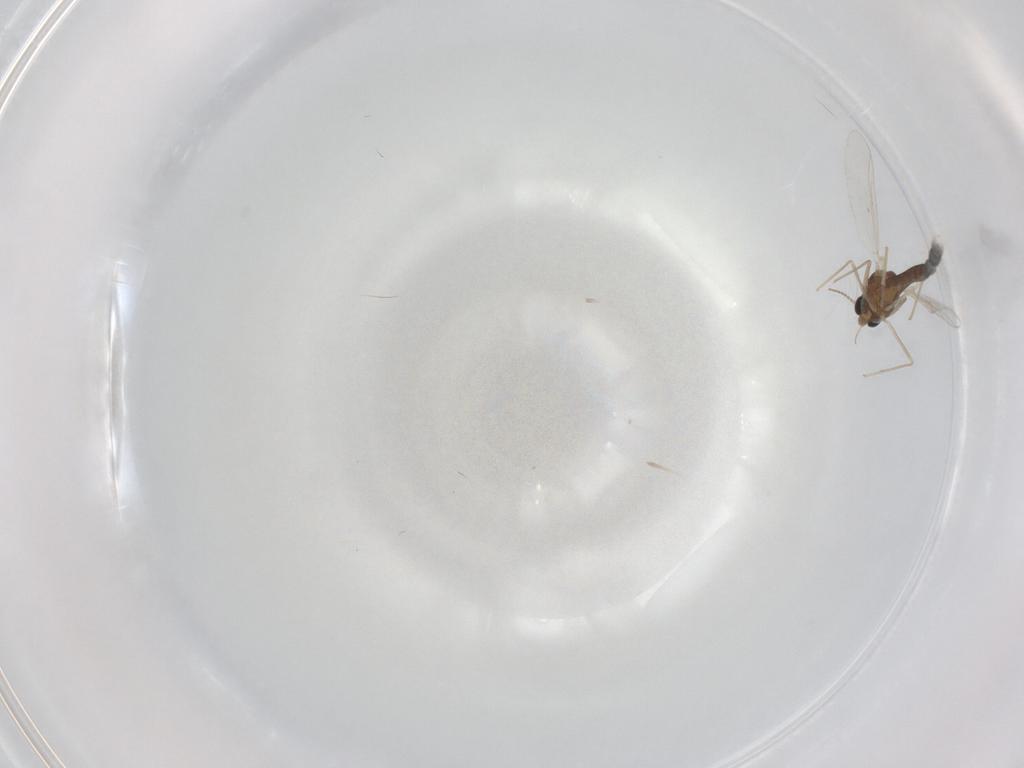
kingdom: Animalia
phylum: Arthropoda
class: Insecta
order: Diptera
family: Chironomidae
